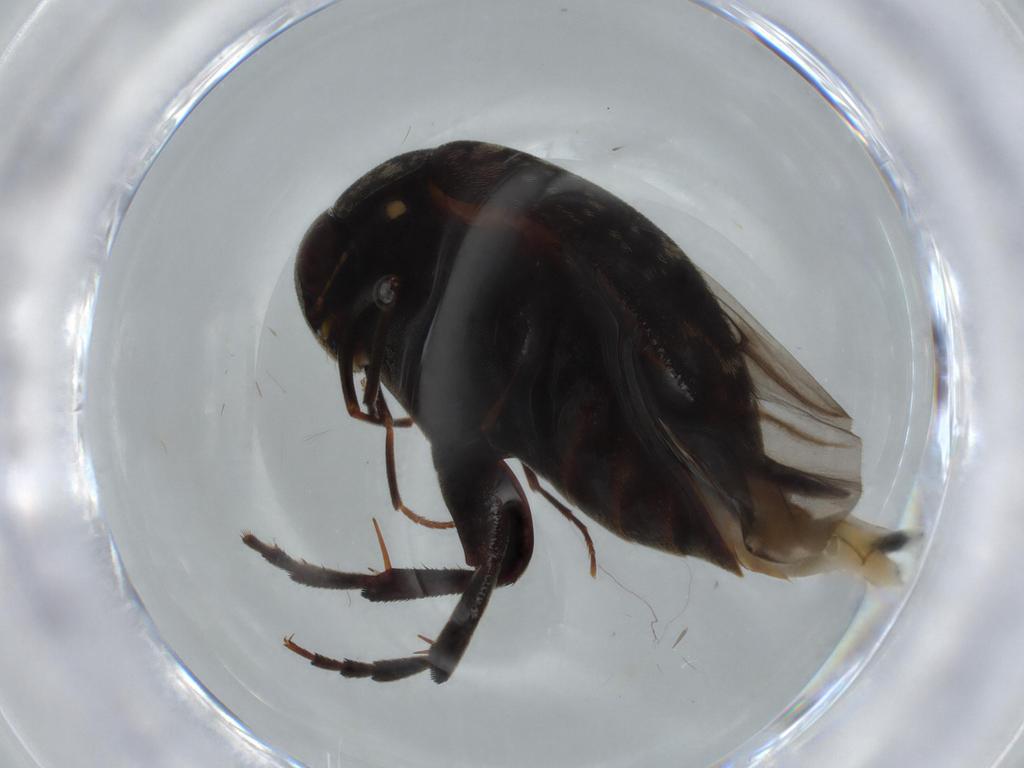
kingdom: Animalia
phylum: Arthropoda
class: Insecta
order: Coleoptera
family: Mordellidae
